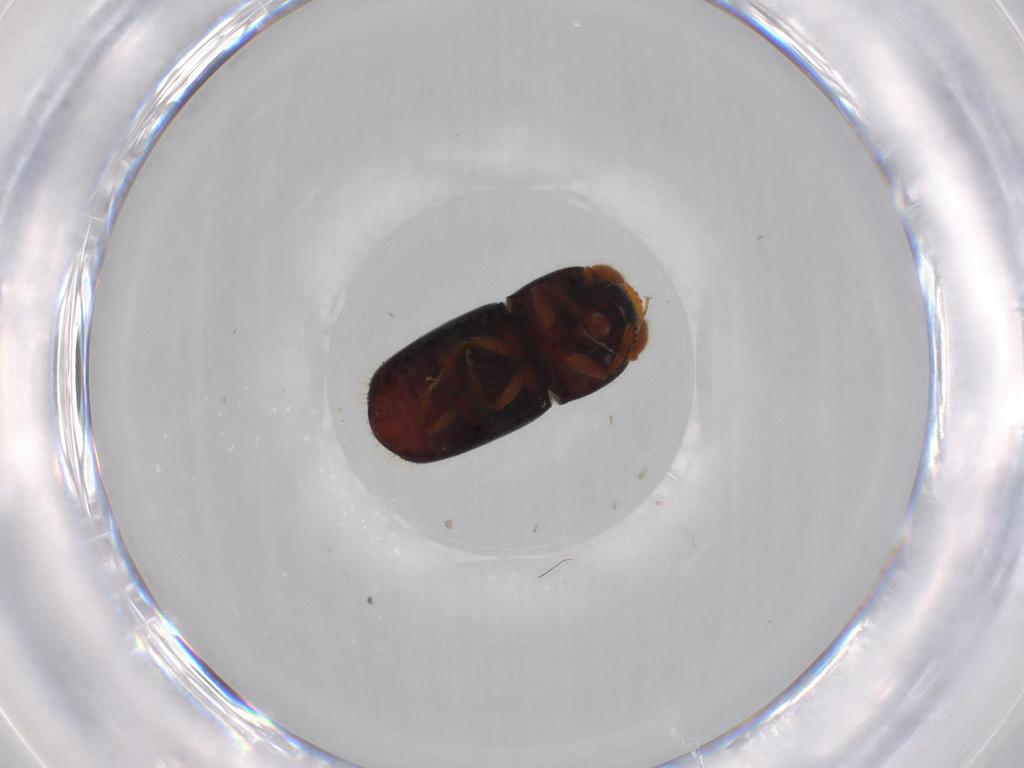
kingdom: Animalia
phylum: Arthropoda
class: Insecta
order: Coleoptera
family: Curculionidae
